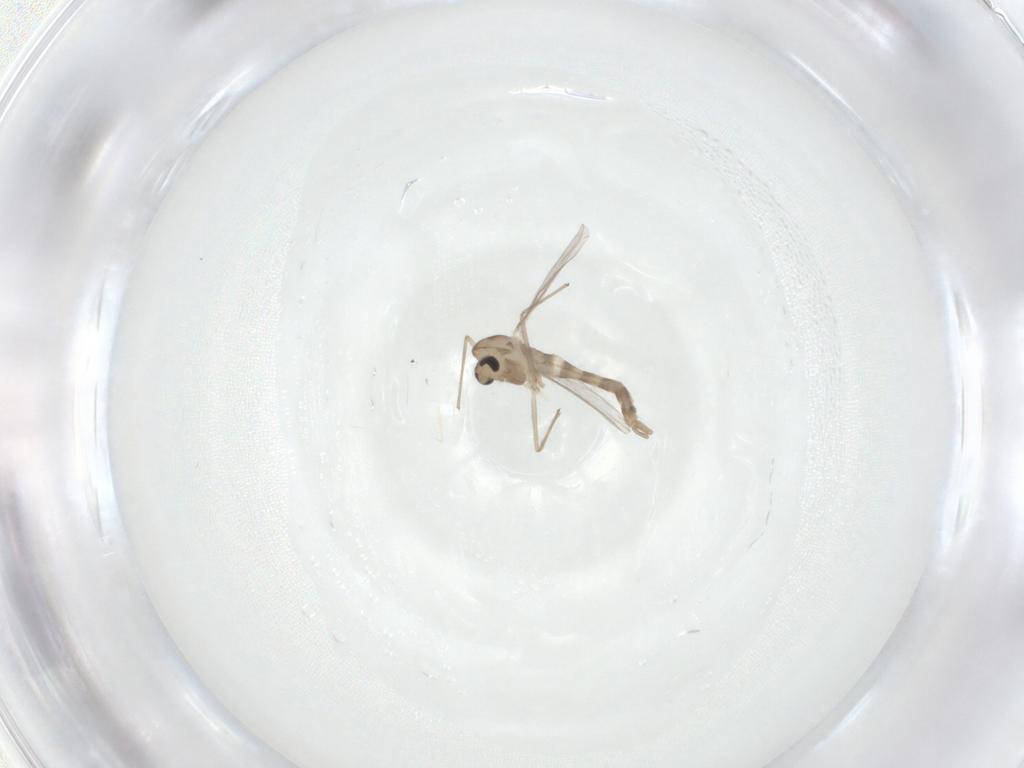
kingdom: Animalia
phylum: Arthropoda
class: Insecta
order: Diptera
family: Chironomidae
